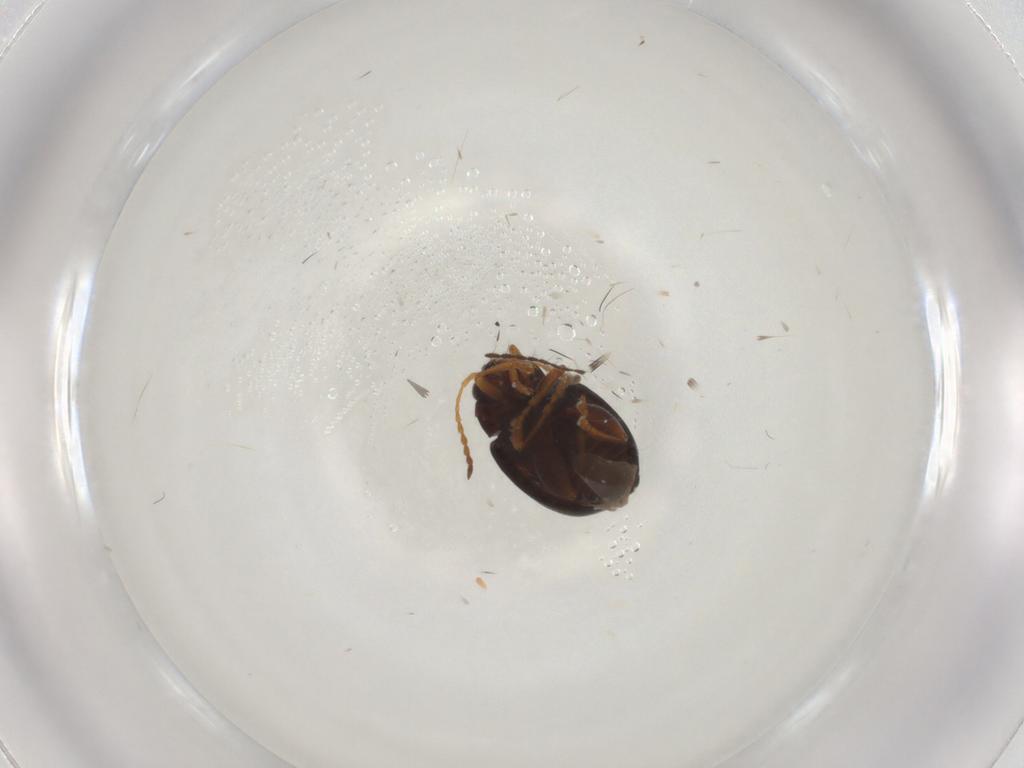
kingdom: Animalia
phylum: Arthropoda
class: Insecta
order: Coleoptera
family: Chrysomelidae
